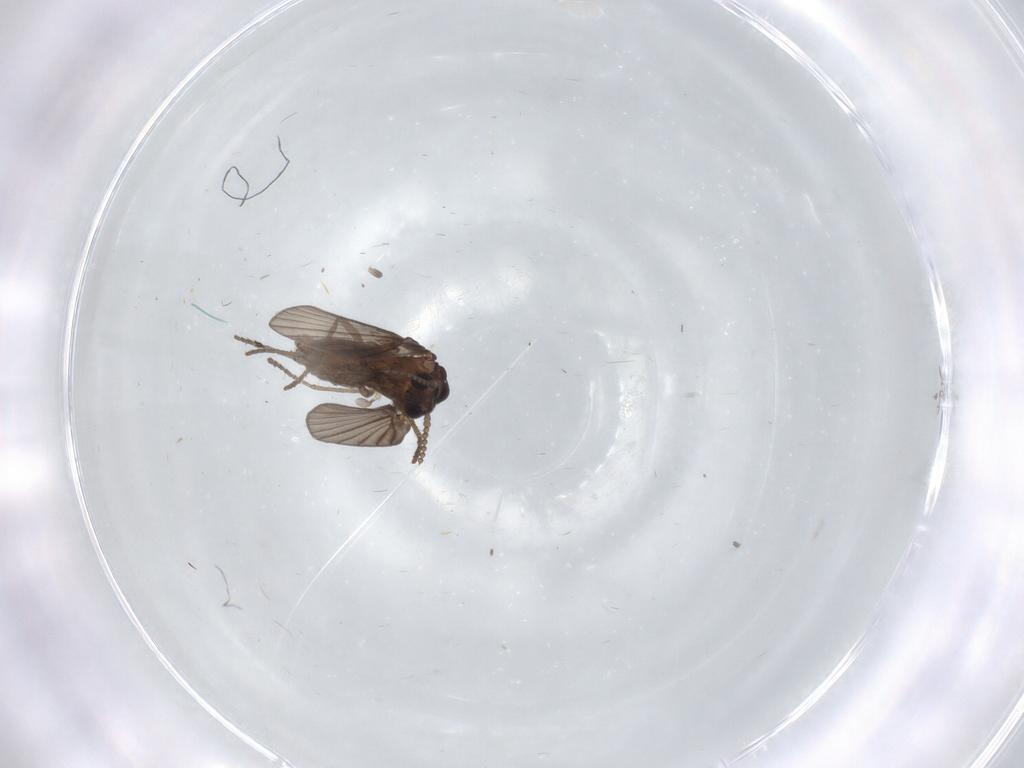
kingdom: Animalia
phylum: Arthropoda
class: Insecta
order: Diptera
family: Psychodidae
